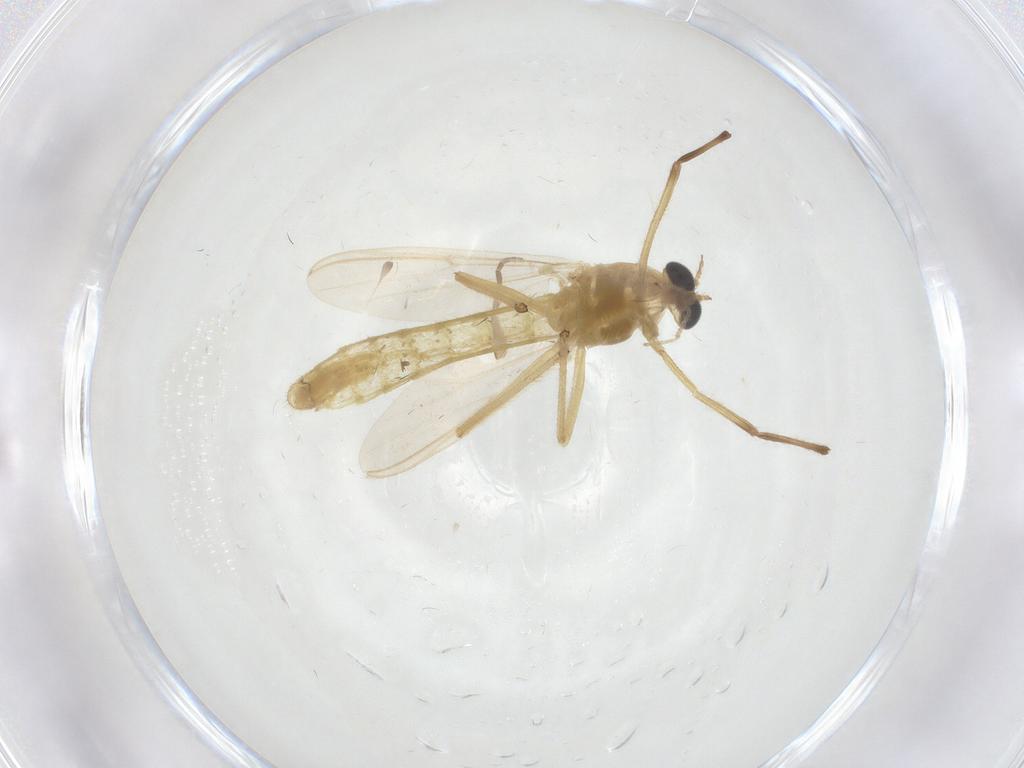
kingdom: Animalia
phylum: Arthropoda
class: Insecta
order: Diptera
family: Chironomidae
